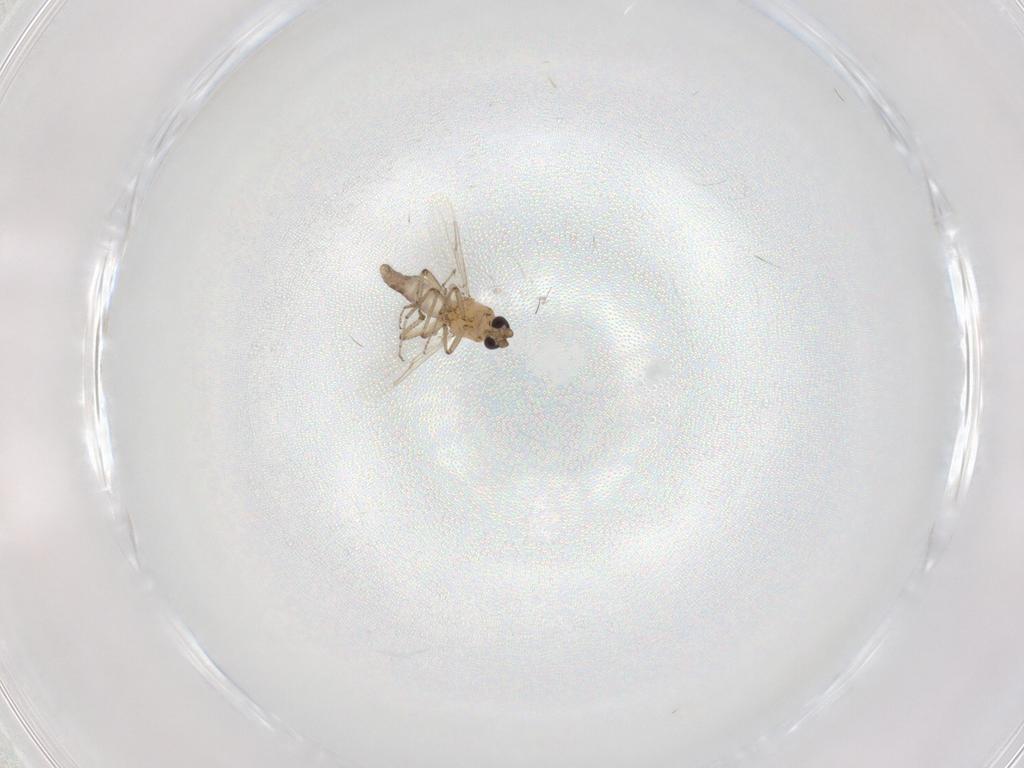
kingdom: Animalia
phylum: Arthropoda
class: Insecta
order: Diptera
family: Chironomidae
